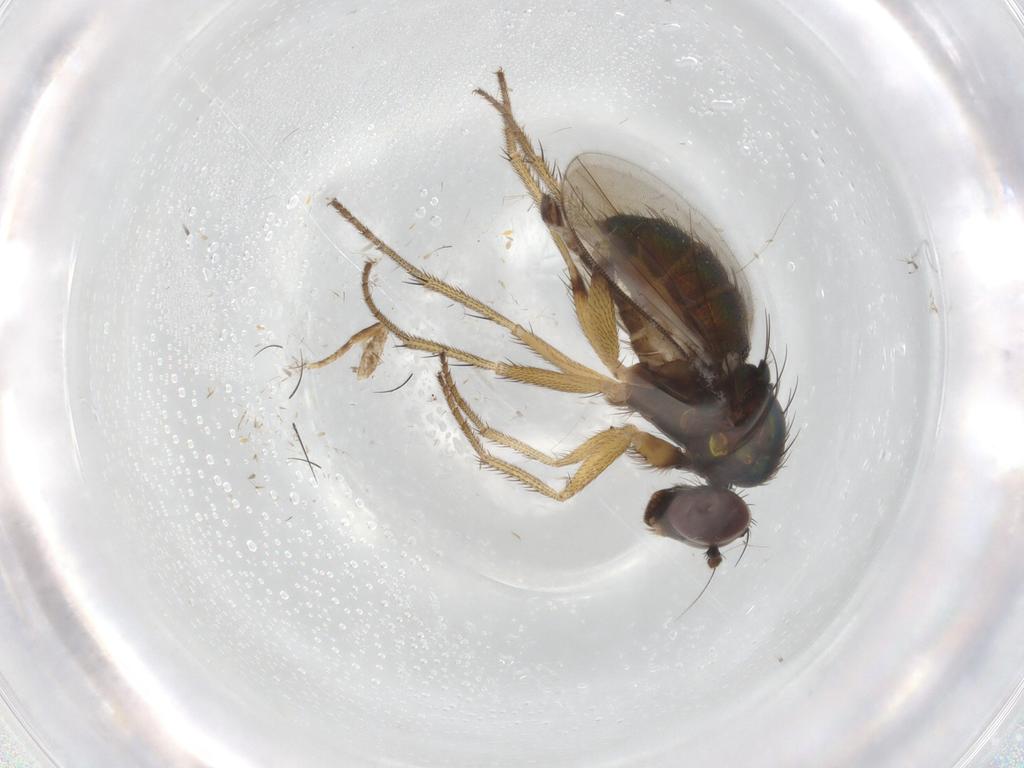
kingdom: Animalia
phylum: Arthropoda
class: Insecta
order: Diptera
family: Dolichopodidae
